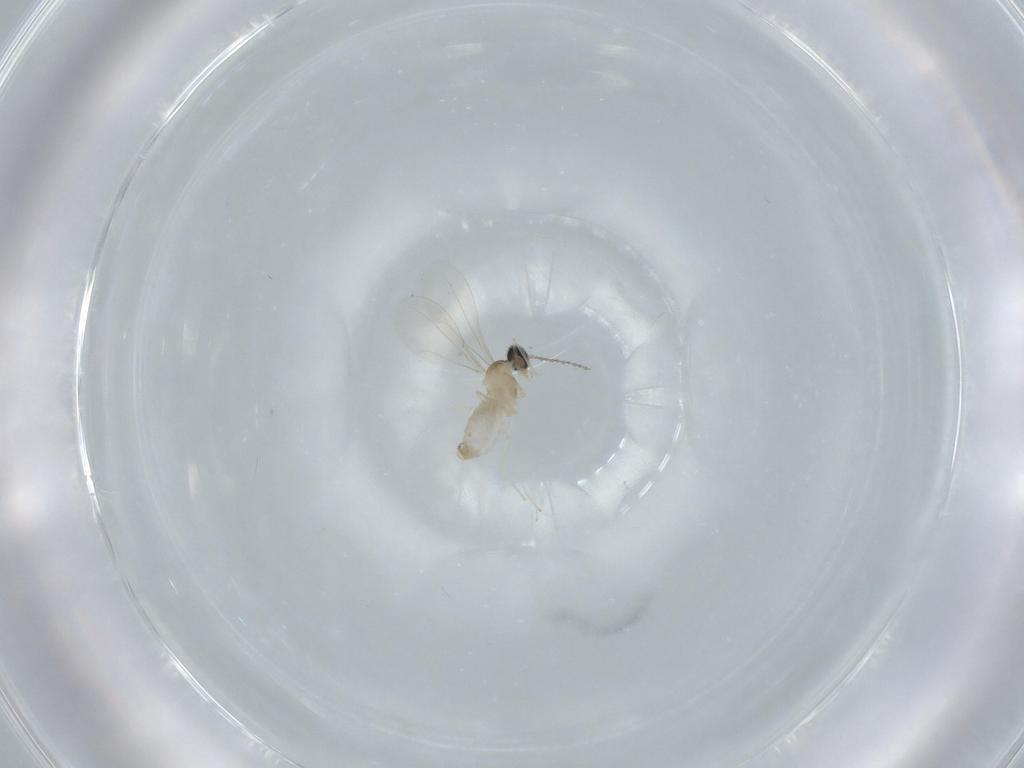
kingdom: Animalia
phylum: Arthropoda
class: Insecta
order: Diptera
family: Cecidomyiidae
